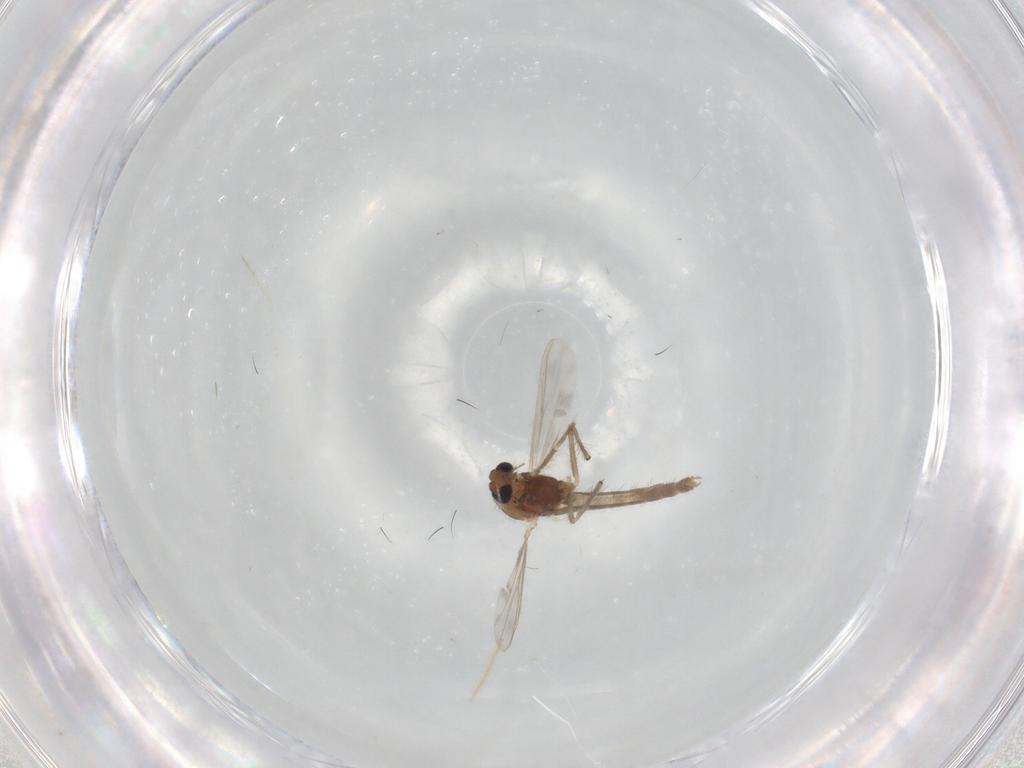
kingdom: Animalia
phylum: Arthropoda
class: Insecta
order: Diptera
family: Chironomidae
